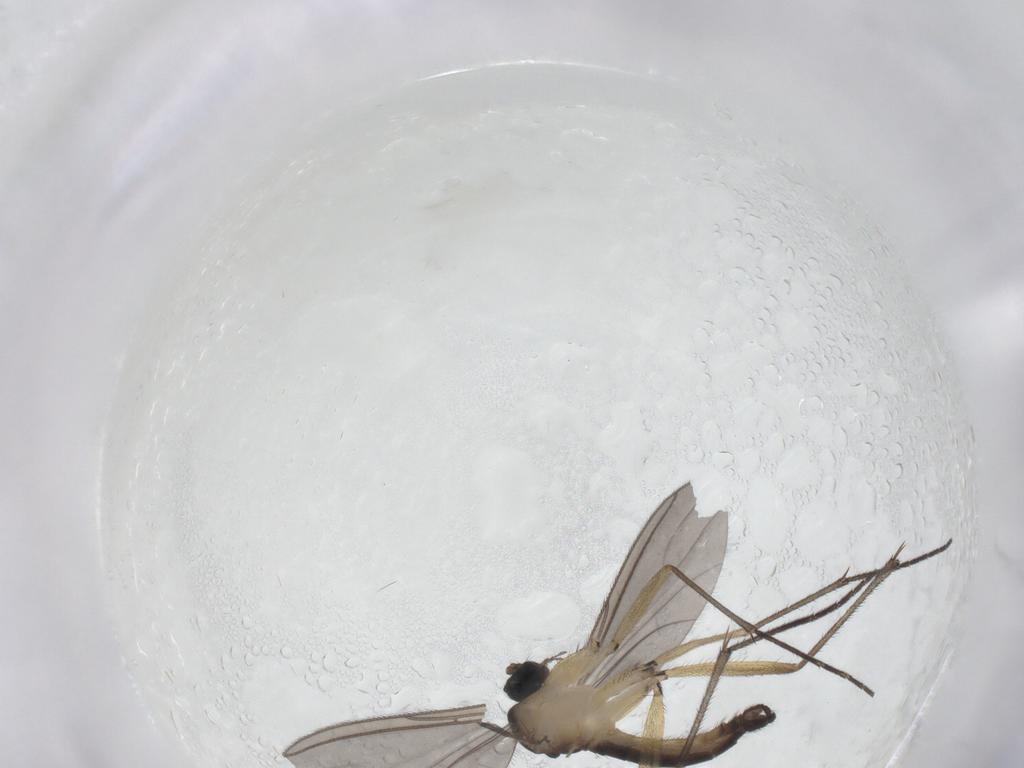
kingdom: Animalia
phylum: Arthropoda
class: Insecta
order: Diptera
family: Sciaridae
